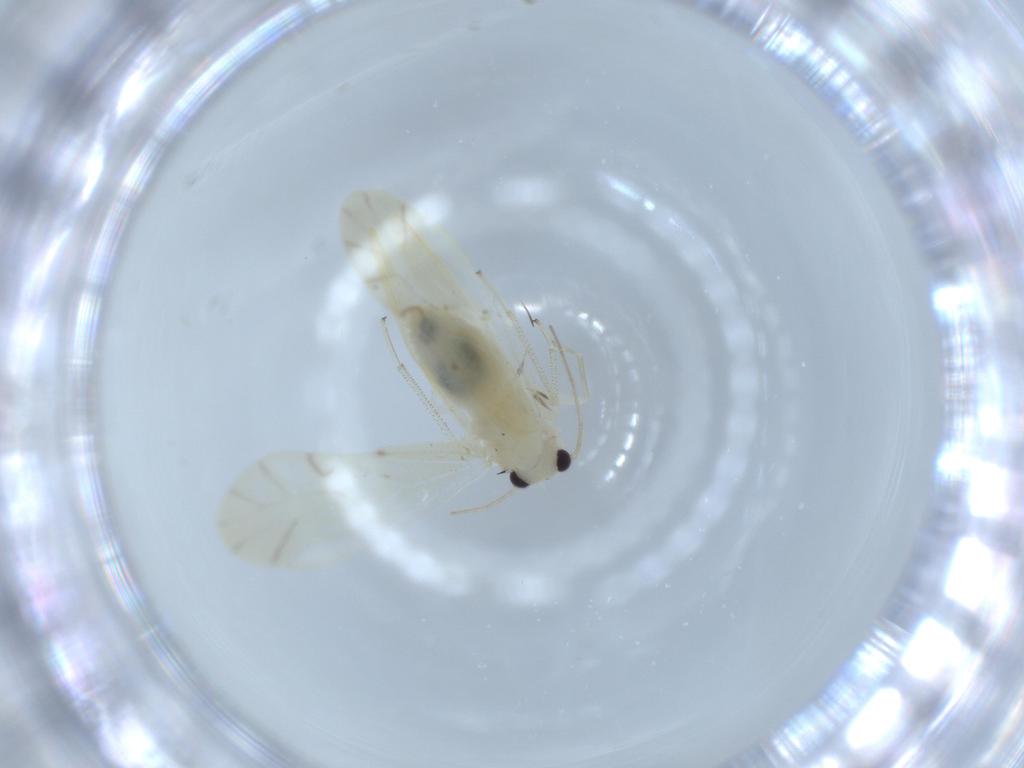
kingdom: Animalia
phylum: Arthropoda
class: Insecta
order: Psocodea
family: Caeciliusidae
